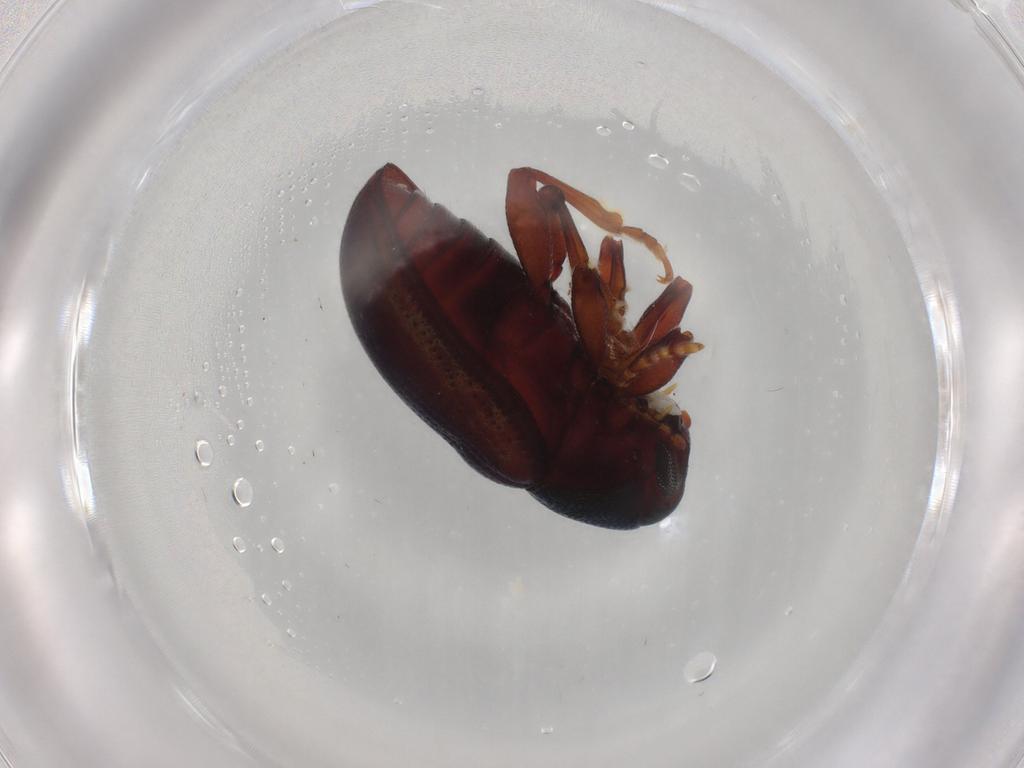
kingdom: Animalia
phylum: Arthropoda
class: Insecta
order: Coleoptera
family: Chrysomelidae
